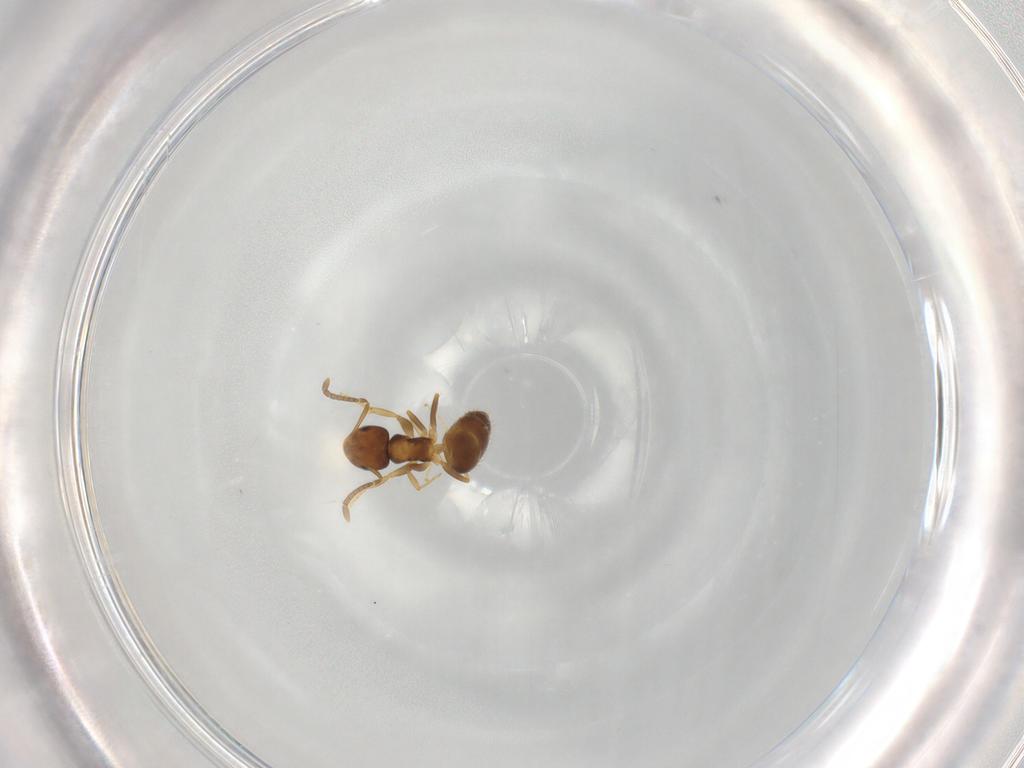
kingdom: Animalia
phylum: Arthropoda
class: Insecta
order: Hymenoptera
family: Formicidae
